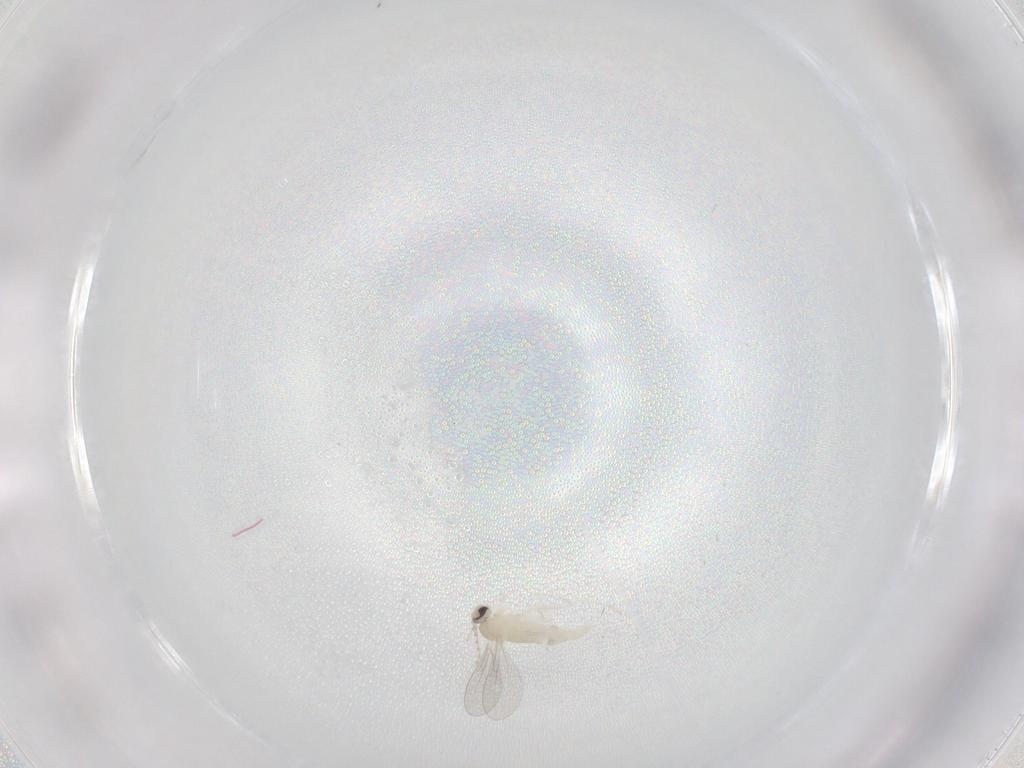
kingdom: Animalia
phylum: Arthropoda
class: Insecta
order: Diptera
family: Cecidomyiidae
